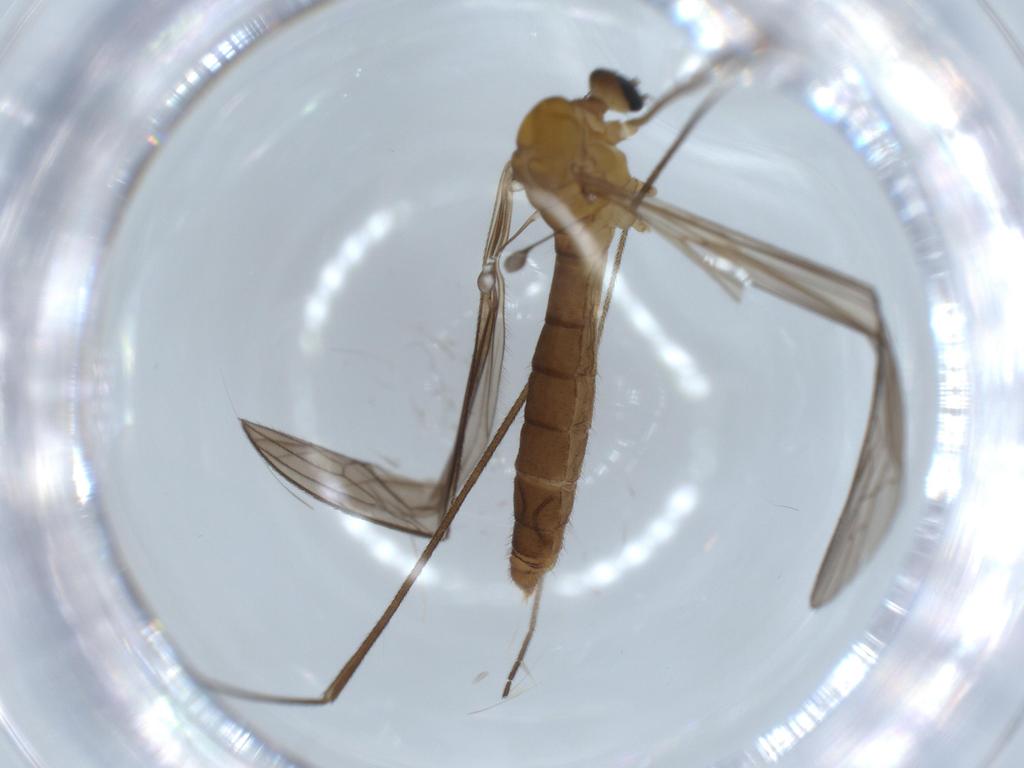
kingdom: Animalia
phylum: Arthropoda
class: Insecta
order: Diptera
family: Limoniidae
